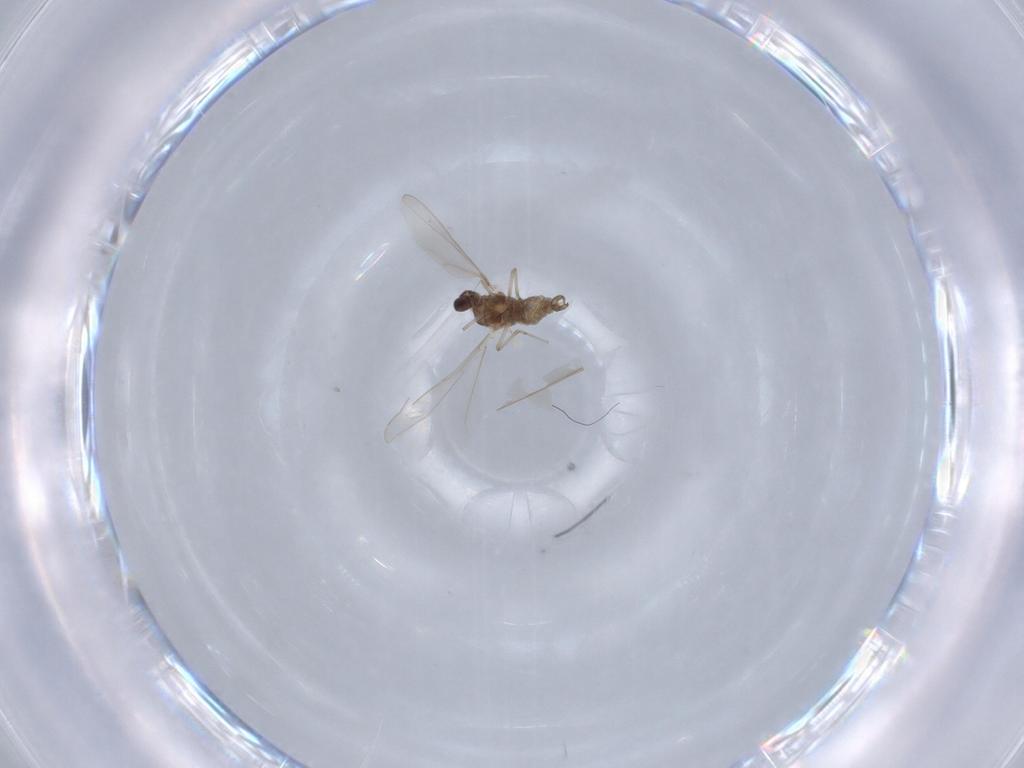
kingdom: Animalia
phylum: Arthropoda
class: Insecta
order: Diptera
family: Cecidomyiidae
